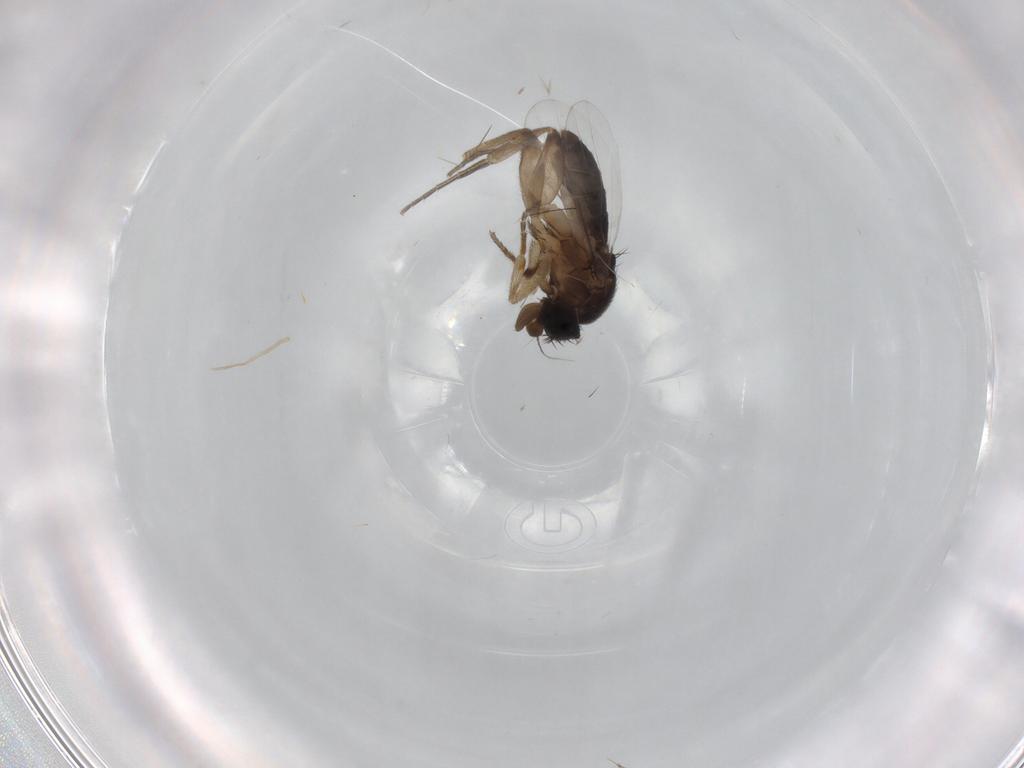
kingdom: Animalia
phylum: Arthropoda
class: Insecta
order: Diptera
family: Phoridae
